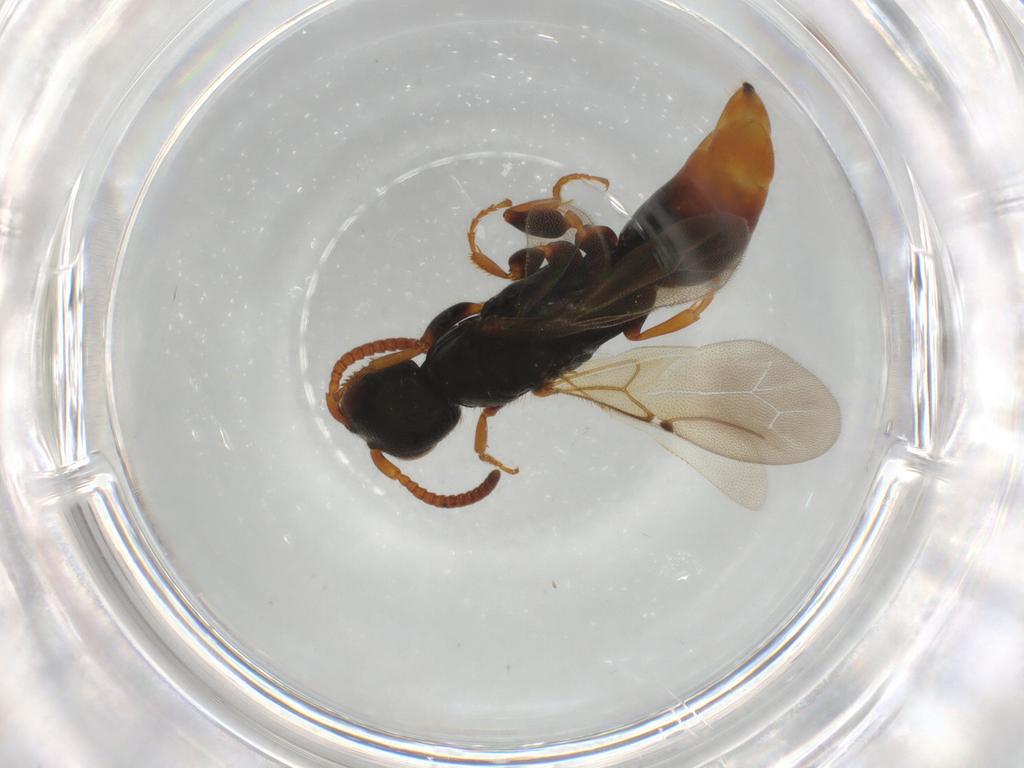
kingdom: Animalia
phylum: Arthropoda
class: Insecta
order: Hymenoptera
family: Bethylidae
